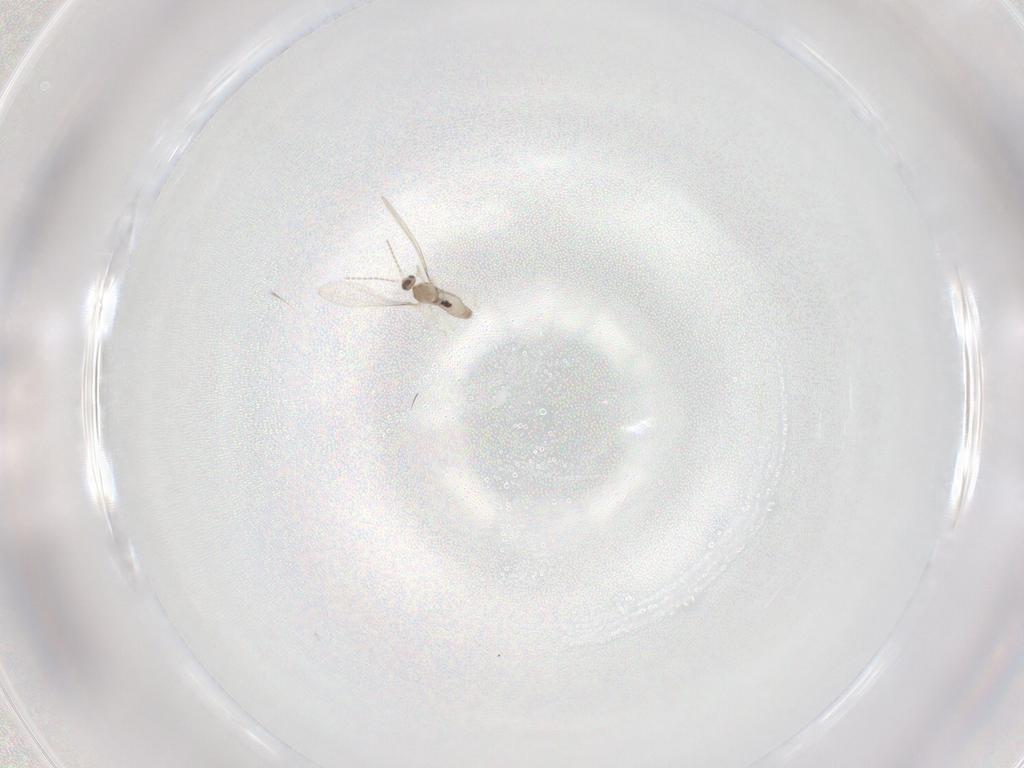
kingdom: Animalia
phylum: Arthropoda
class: Insecta
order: Diptera
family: Cecidomyiidae
